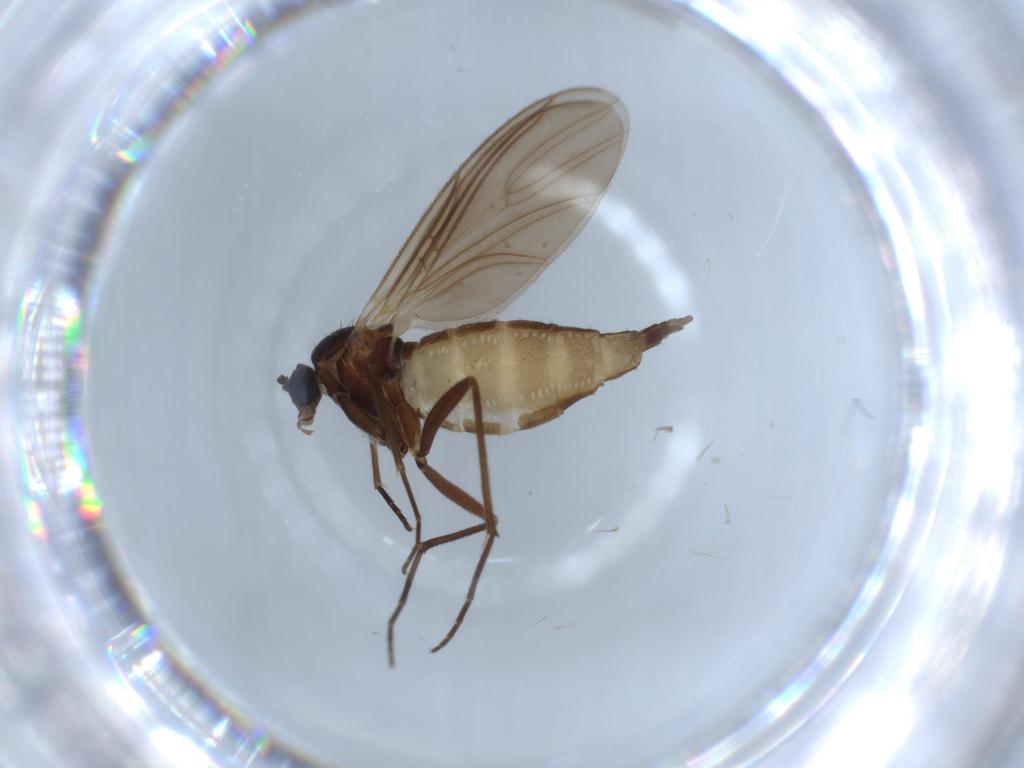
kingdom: Animalia
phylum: Arthropoda
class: Insecta
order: Diptera
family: Sciaridae
